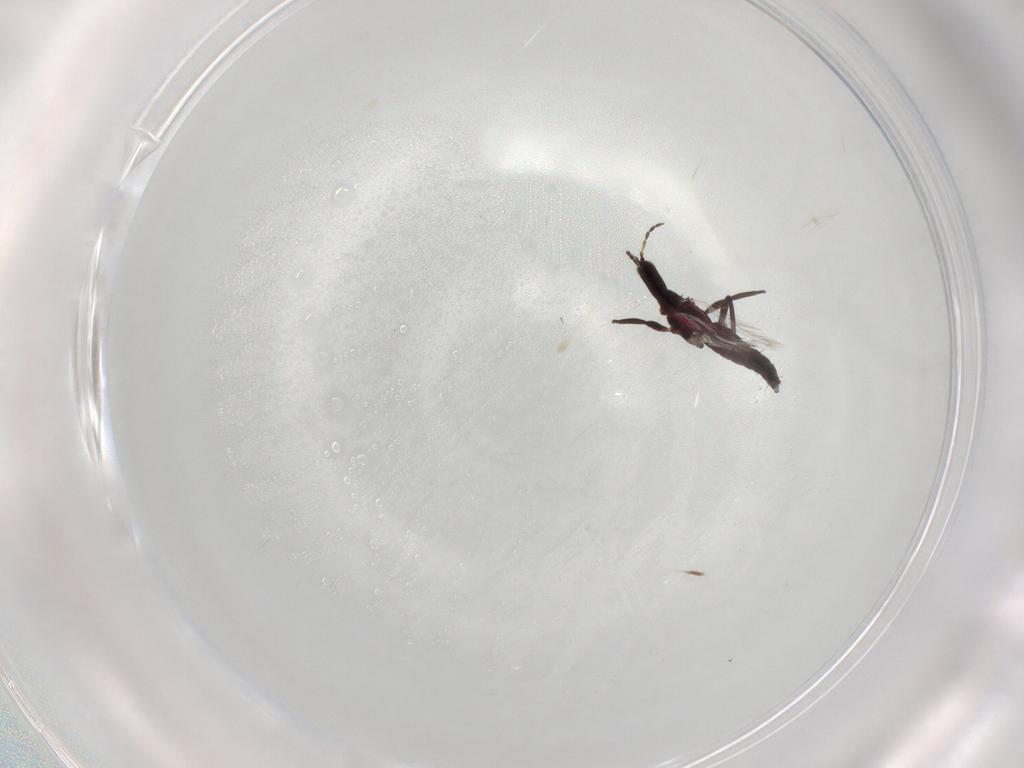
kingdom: Animalia
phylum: Arthropoda
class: Insecta
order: Thysanoptera
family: Phlaeothripidae
